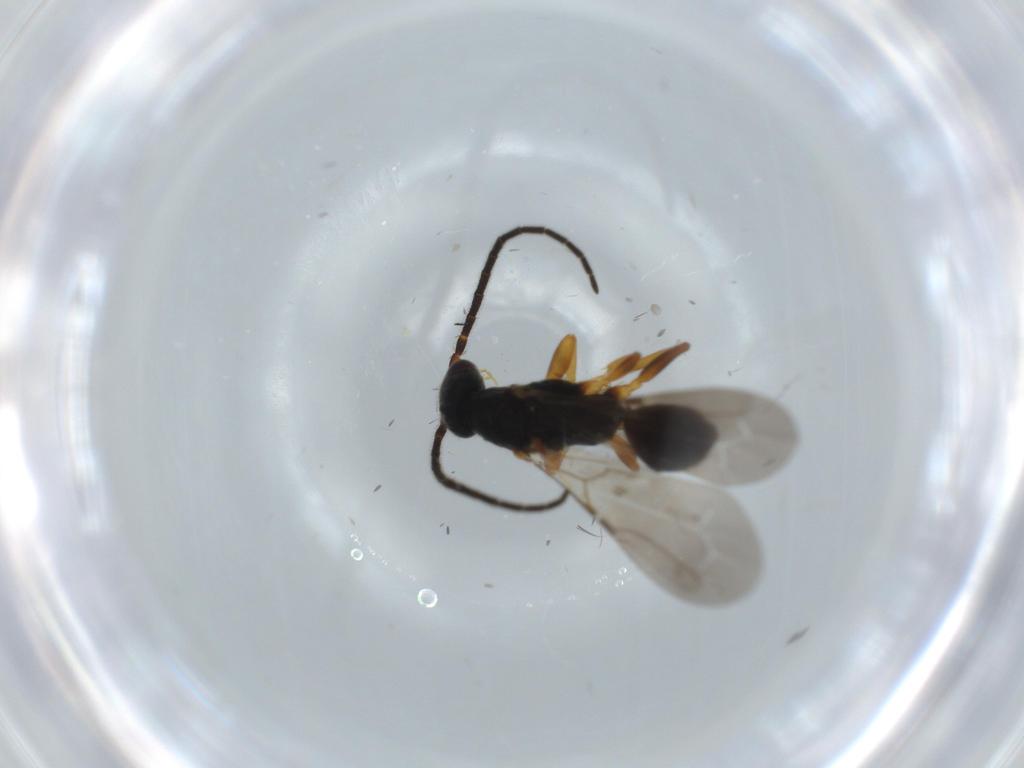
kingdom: Animalia
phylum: Arthropoda
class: Insecta
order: Hymenoptera
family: Bethylidae
